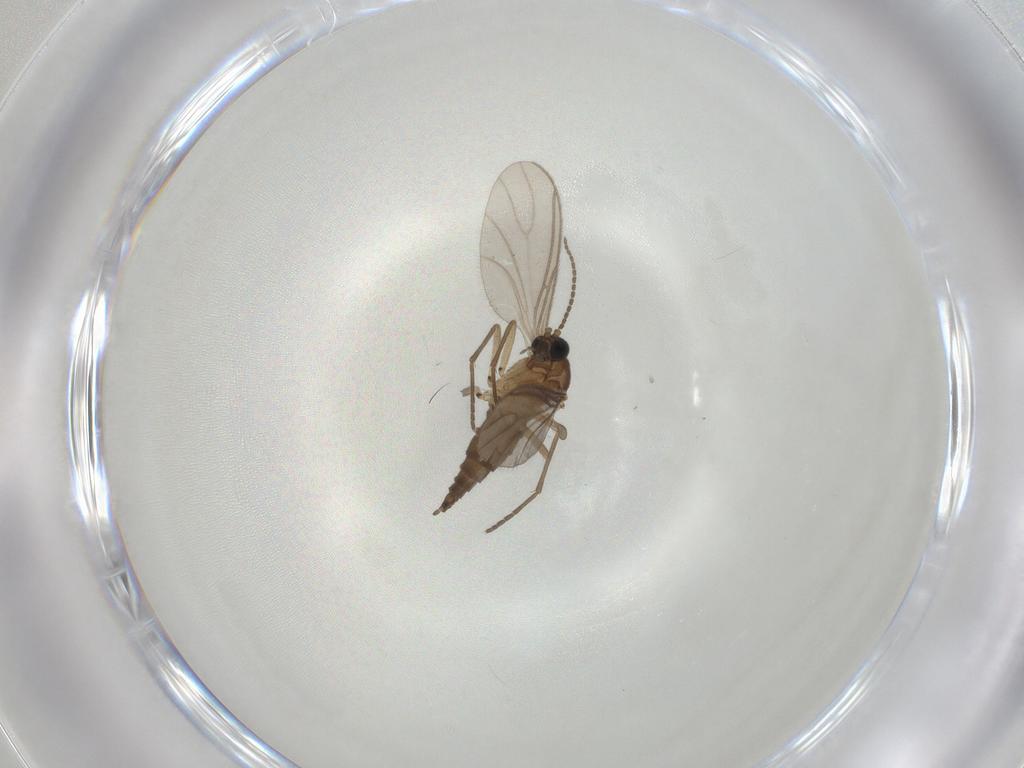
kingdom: Animalia
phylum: Arthropoda
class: Insecta
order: Diptera
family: Sciaridae
